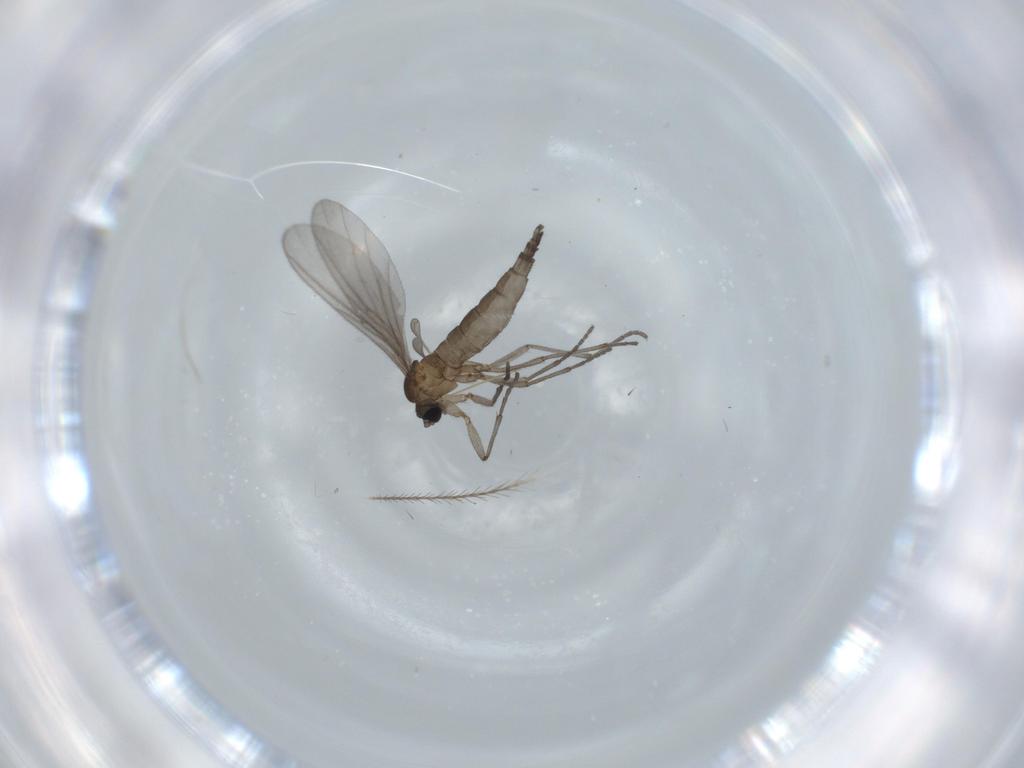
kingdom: Animalia
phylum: Arthropoda
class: Insecta
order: Diptera
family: Sciaridae
